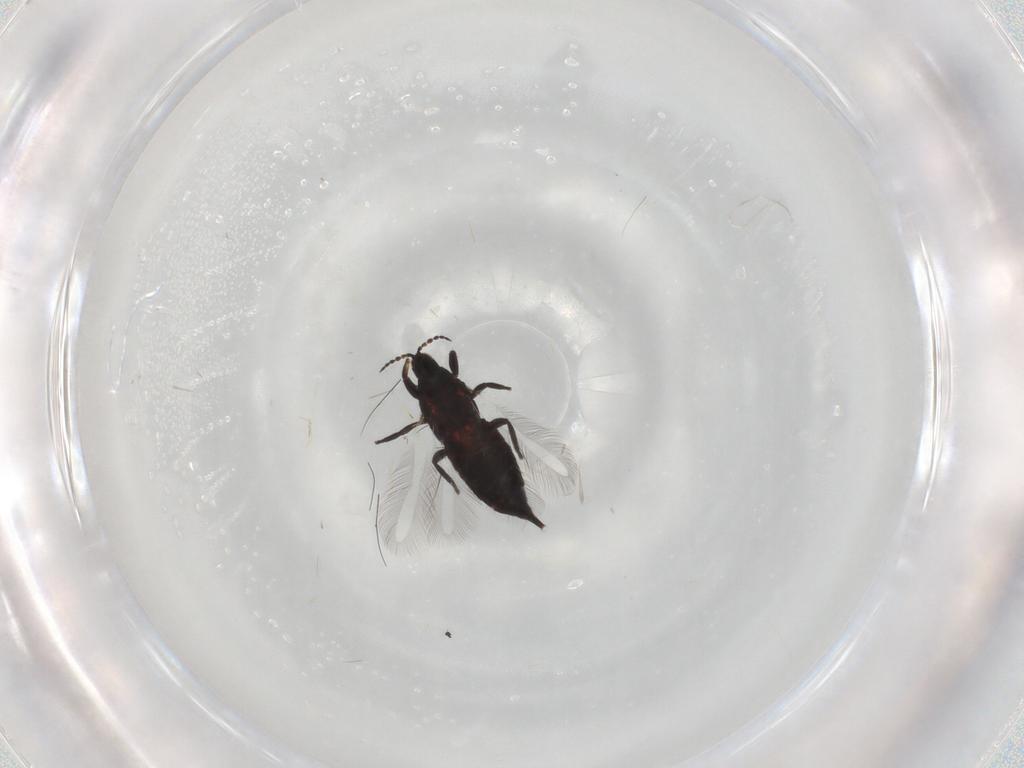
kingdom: Animalia
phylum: Arthropoda
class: Insecta
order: Thysanoptera
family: Phlaeothripidae
